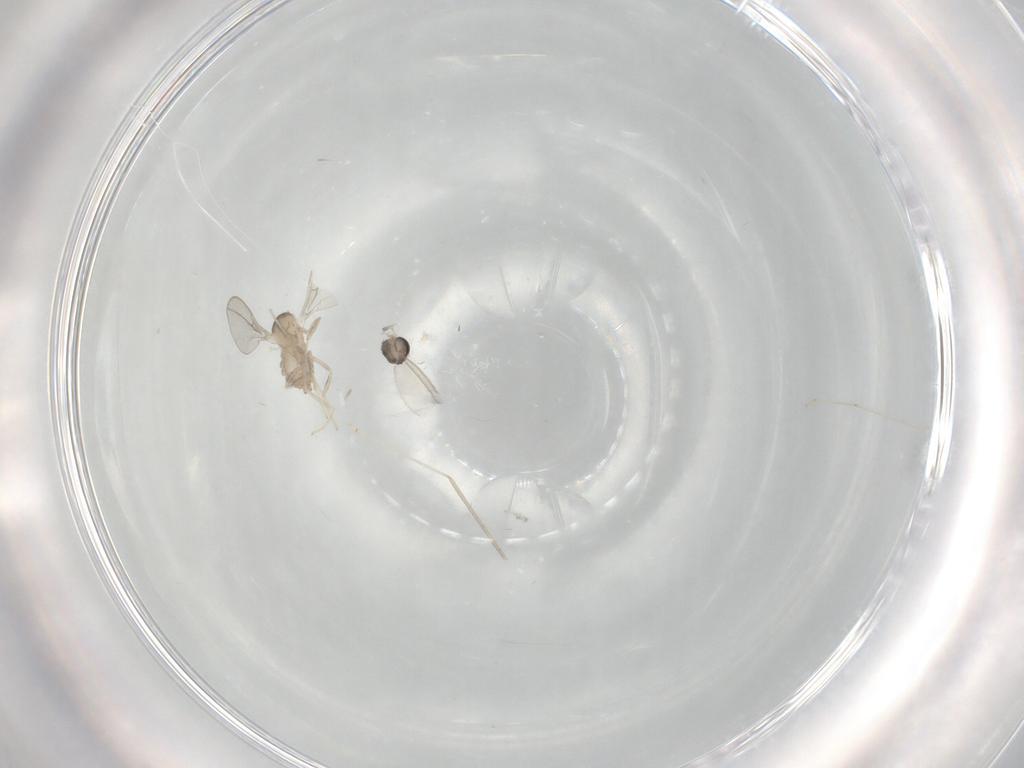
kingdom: Animalia
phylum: Arthropoda
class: Insecta
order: Diptera
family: Cecidomyiidae
